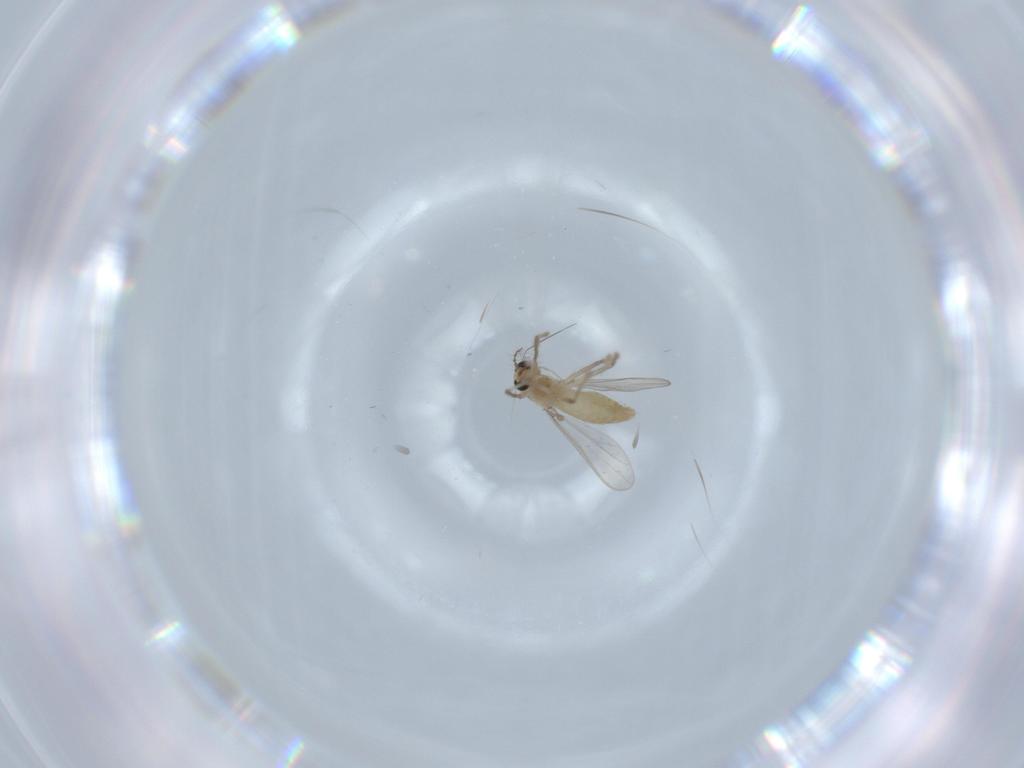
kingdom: Animalia
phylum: Arthropoda
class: Insecta
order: Diptera
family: Chironomidae
